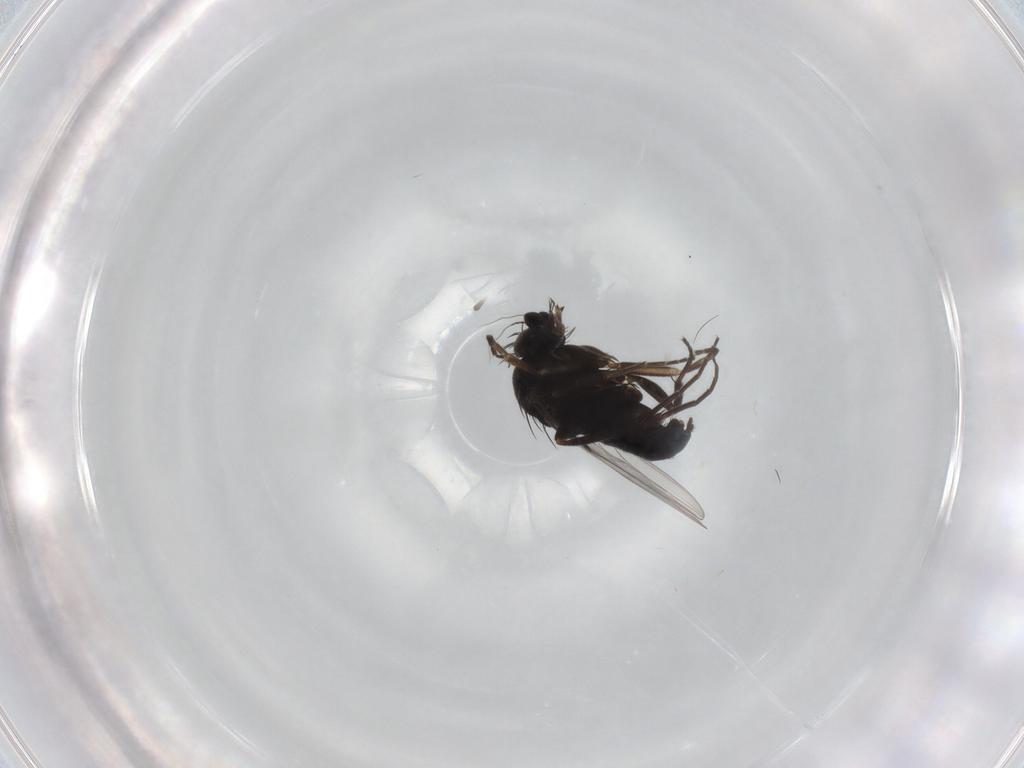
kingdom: Animalia
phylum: Arthropoda
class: Insecta
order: Diptera
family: Phoridae
